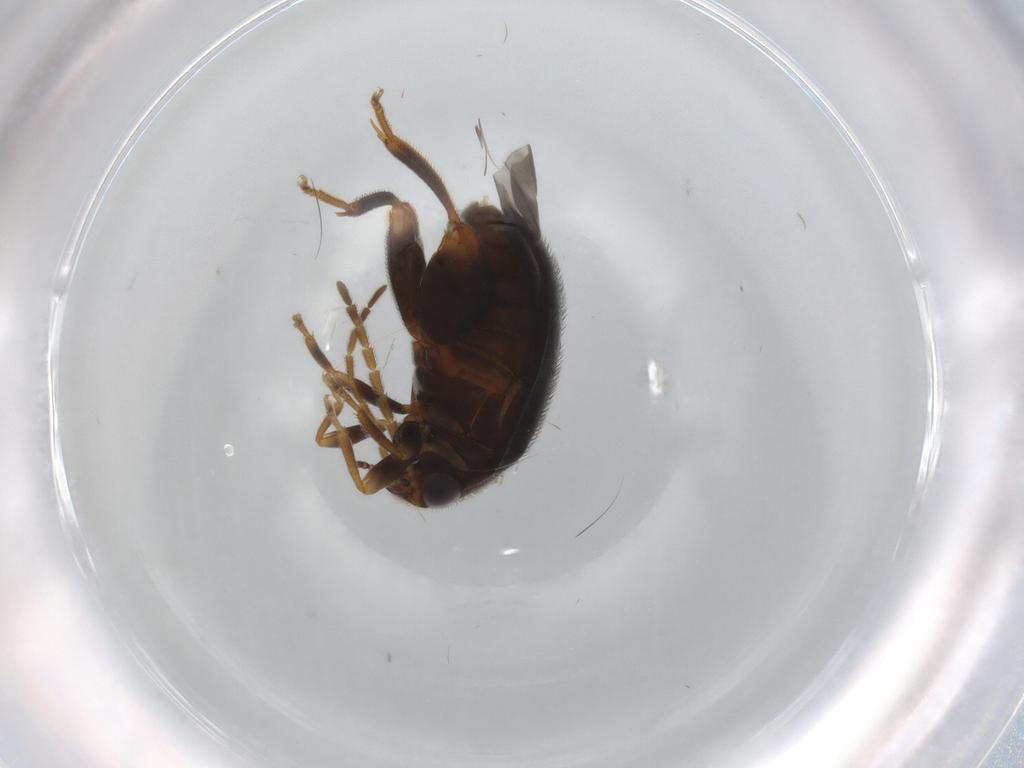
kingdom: Animalia
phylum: Arthropoda
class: Insecta
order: Coleoptera
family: Scirtidae
